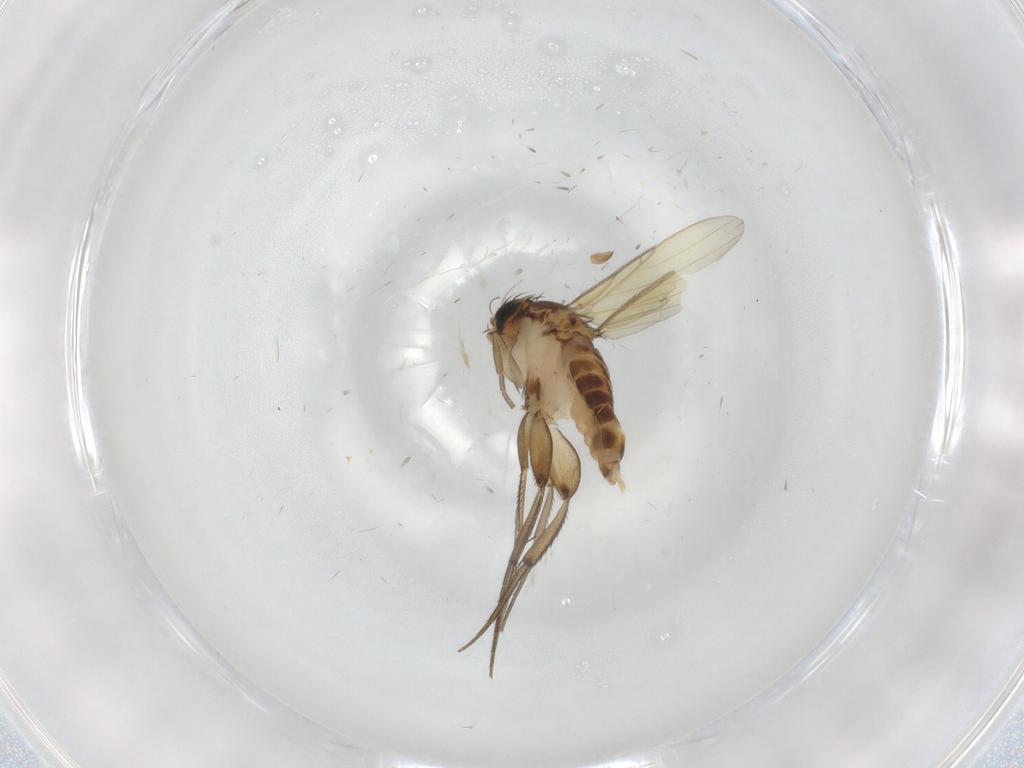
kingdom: Animalia
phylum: Arthropoda
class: Insecta
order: Diptera
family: Phoridae
